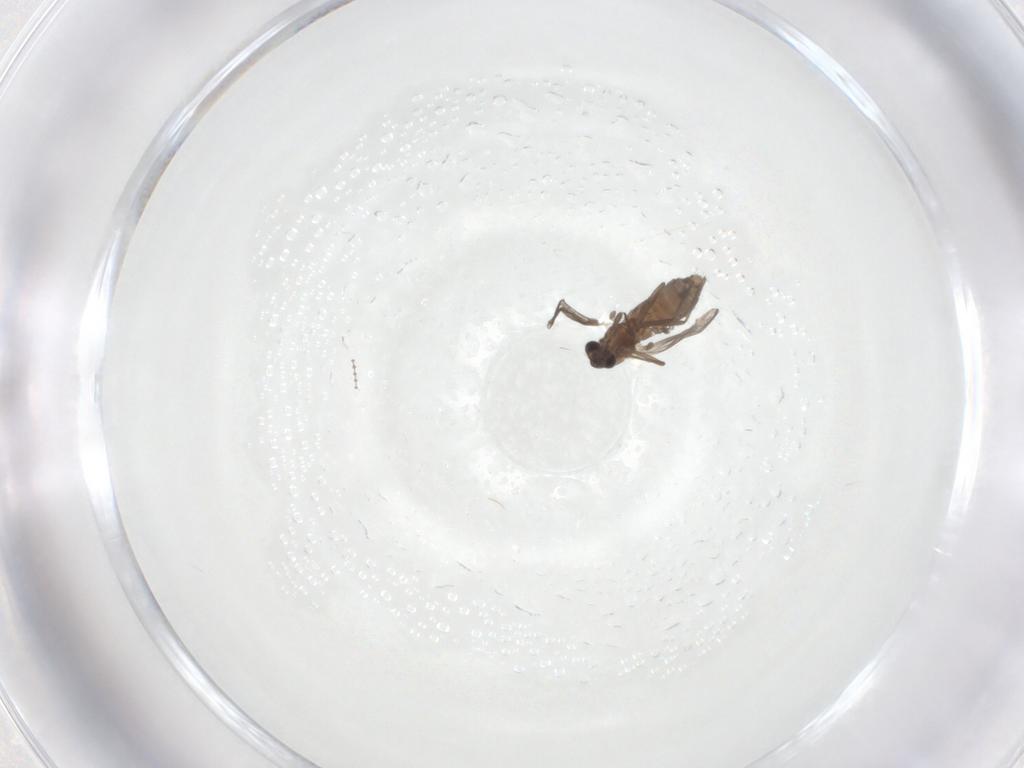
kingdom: Animalia
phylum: Arthropoda
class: Insecta
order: Diptera
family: Chironomidae
